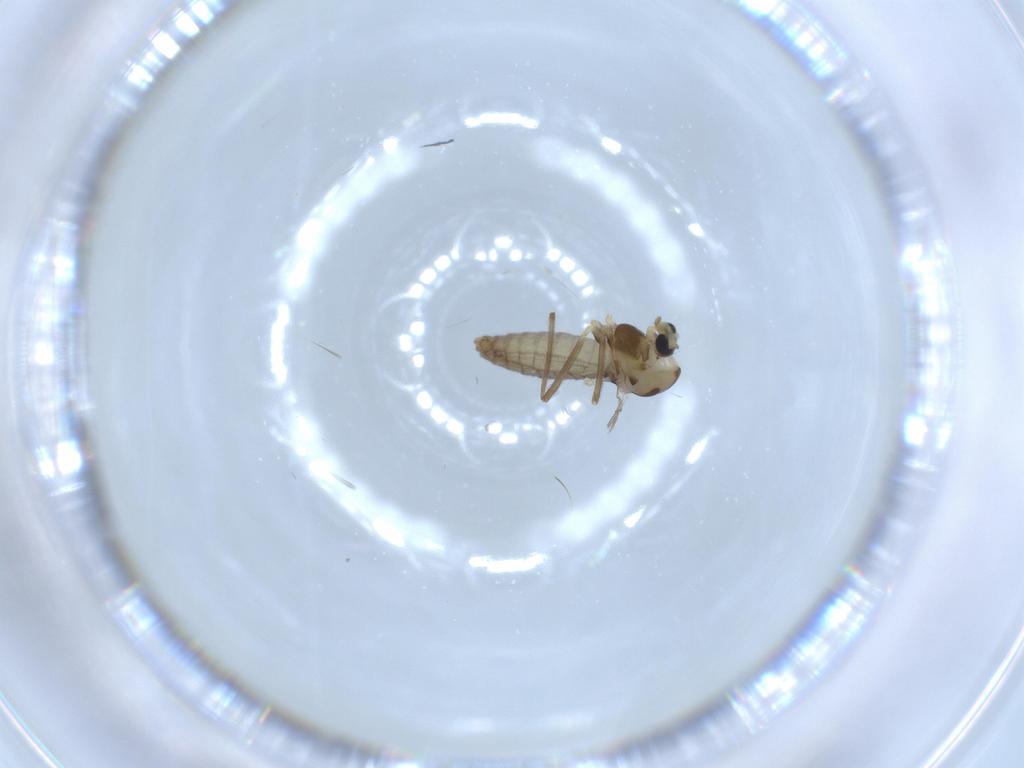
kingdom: Animalia
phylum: Arthropoda
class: Insecta
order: Diptera
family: Cecidomyiidae
